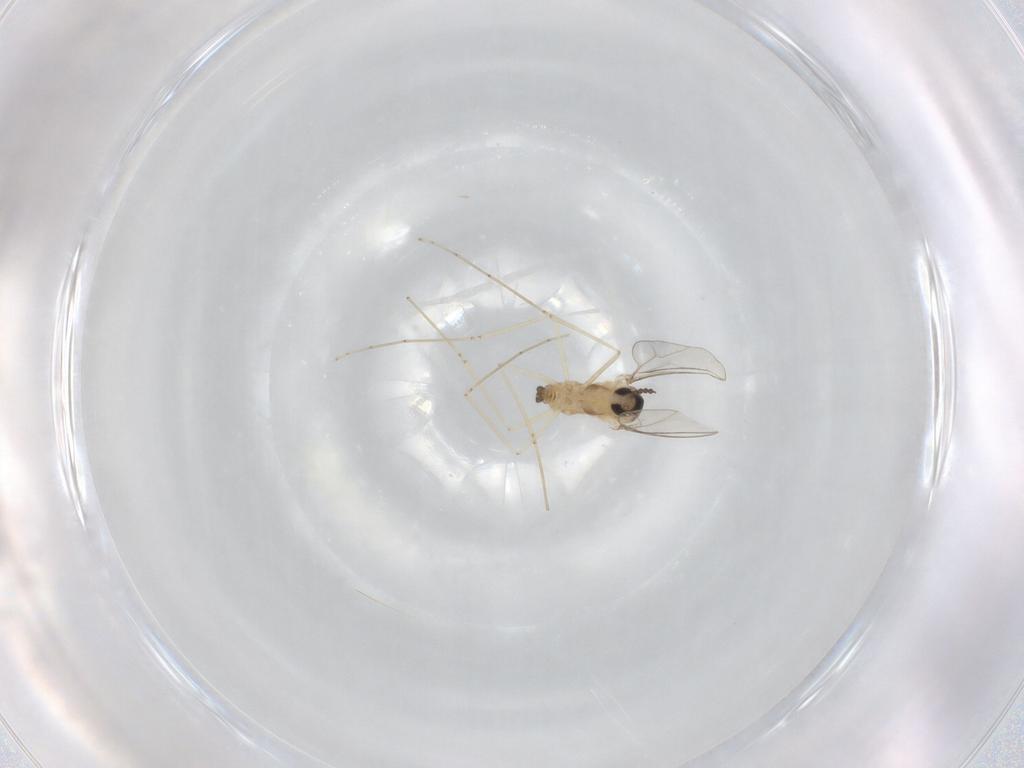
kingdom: Animalia
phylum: Arthropoda
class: Insecta
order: Diptera
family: Cecidomyiidae
